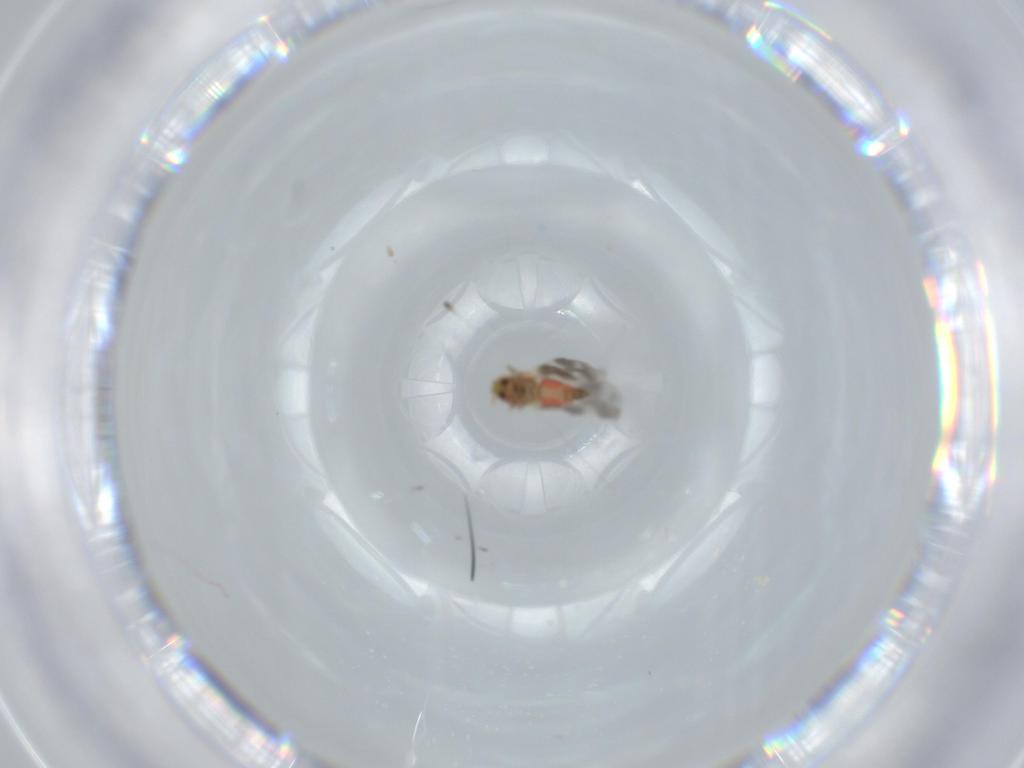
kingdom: Animalia
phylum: Arthropoda
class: Insecta
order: Hemiptera
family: Aleyrodidae
